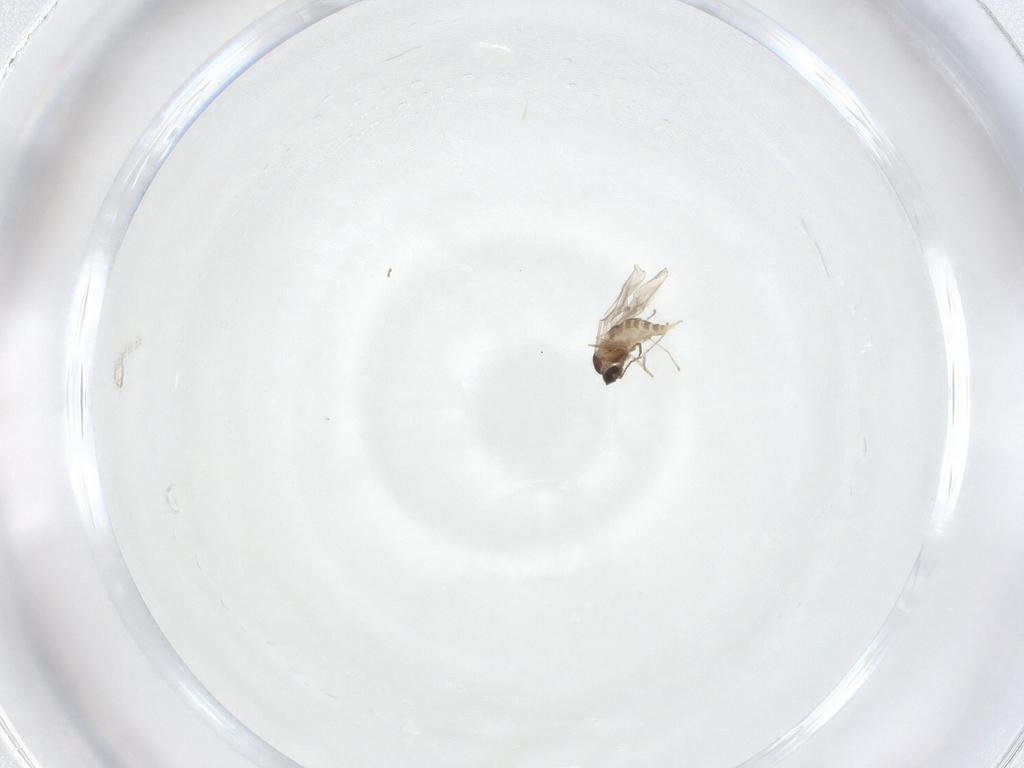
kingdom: Animalia
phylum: Arthropoda
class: Insecta
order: Diptera
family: Cecidomyiidae
